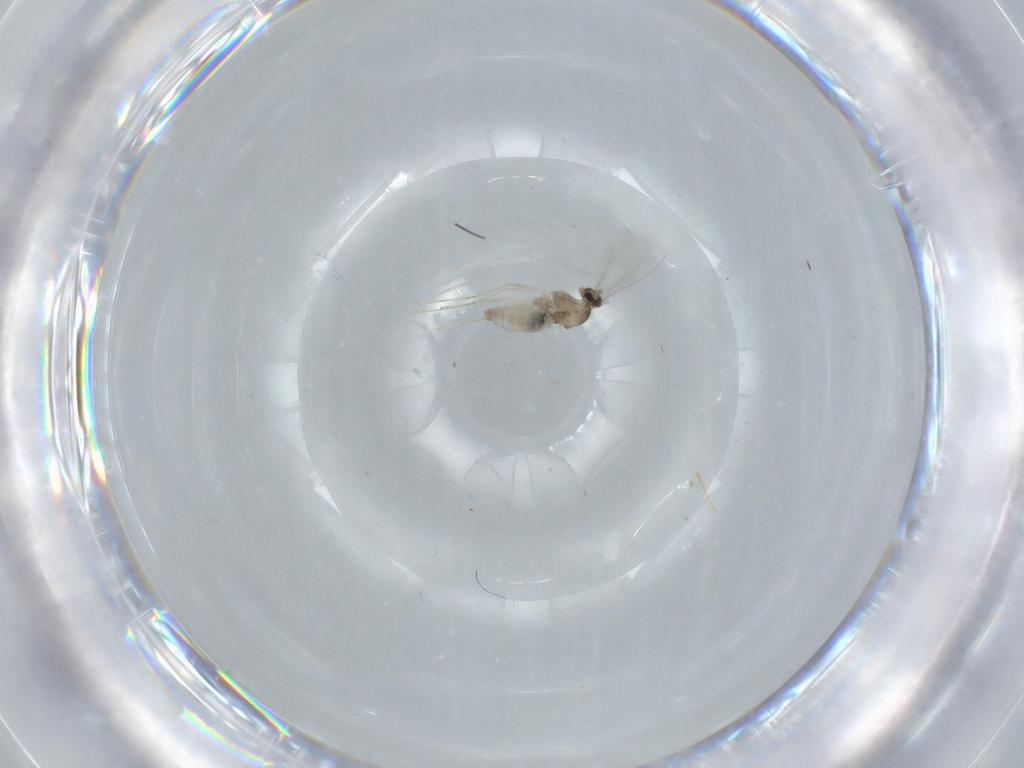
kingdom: Animalia
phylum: Arthropoda
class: Insecta
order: Diptera
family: Cecidomyiidae
